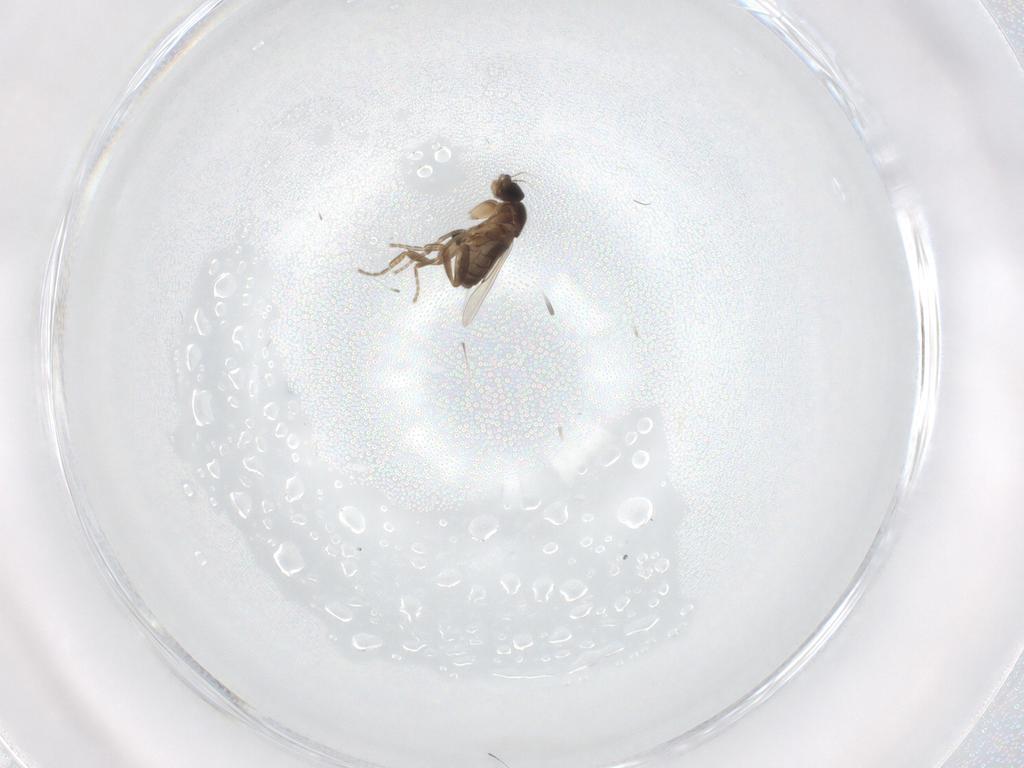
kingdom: Animalia
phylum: Arthropoda
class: Insecta
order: Diptera
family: Phoridae
